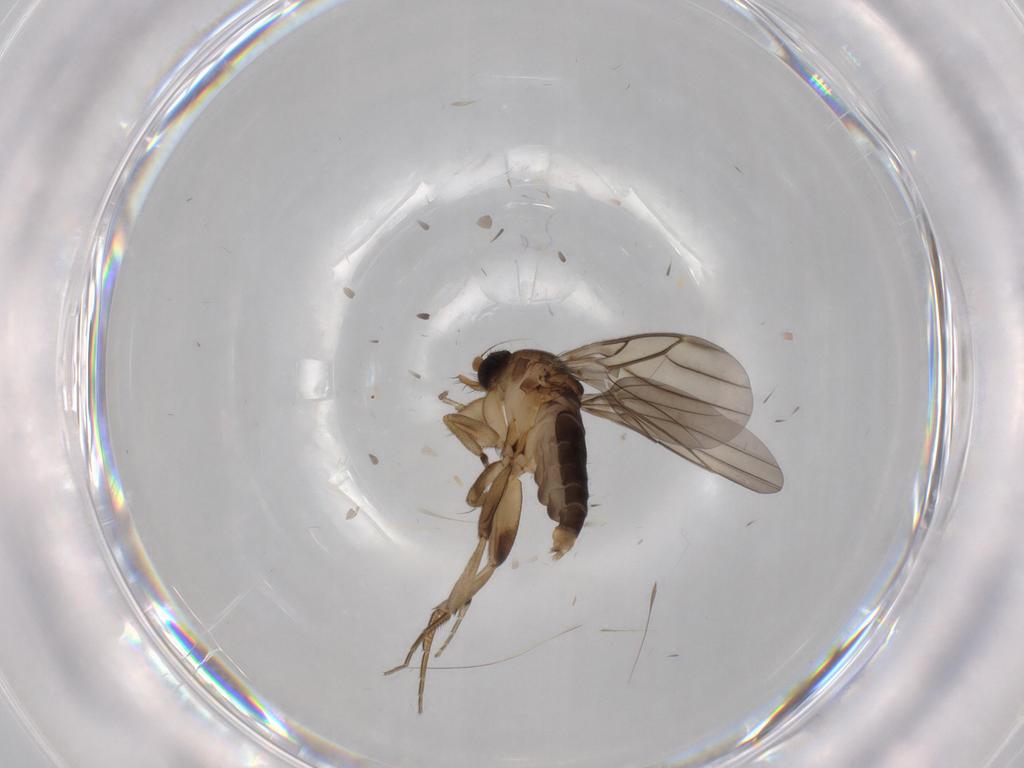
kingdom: Animalia
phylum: Arthropoda
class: Insecta
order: Diptera
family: Phoridae
